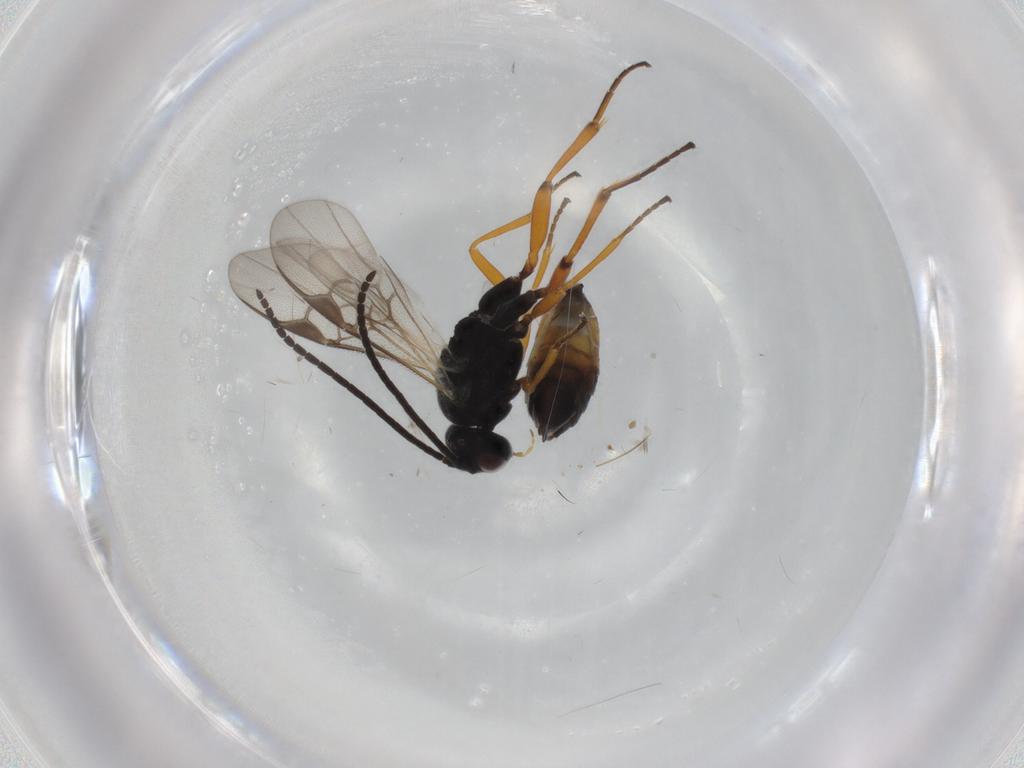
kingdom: Animalia
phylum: Arthropoda
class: Insecta
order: Hymenoptera
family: Braconidae
